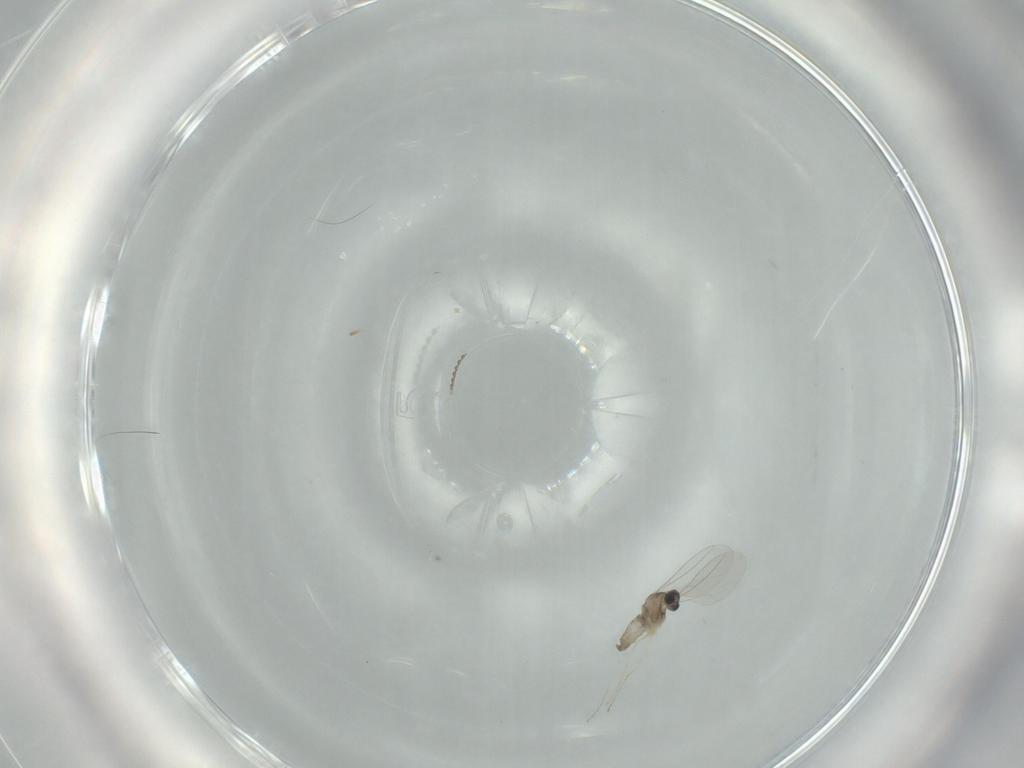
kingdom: Animalia
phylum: Arthropoda
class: Insecta
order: Diptera
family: Cecidomyiidae
